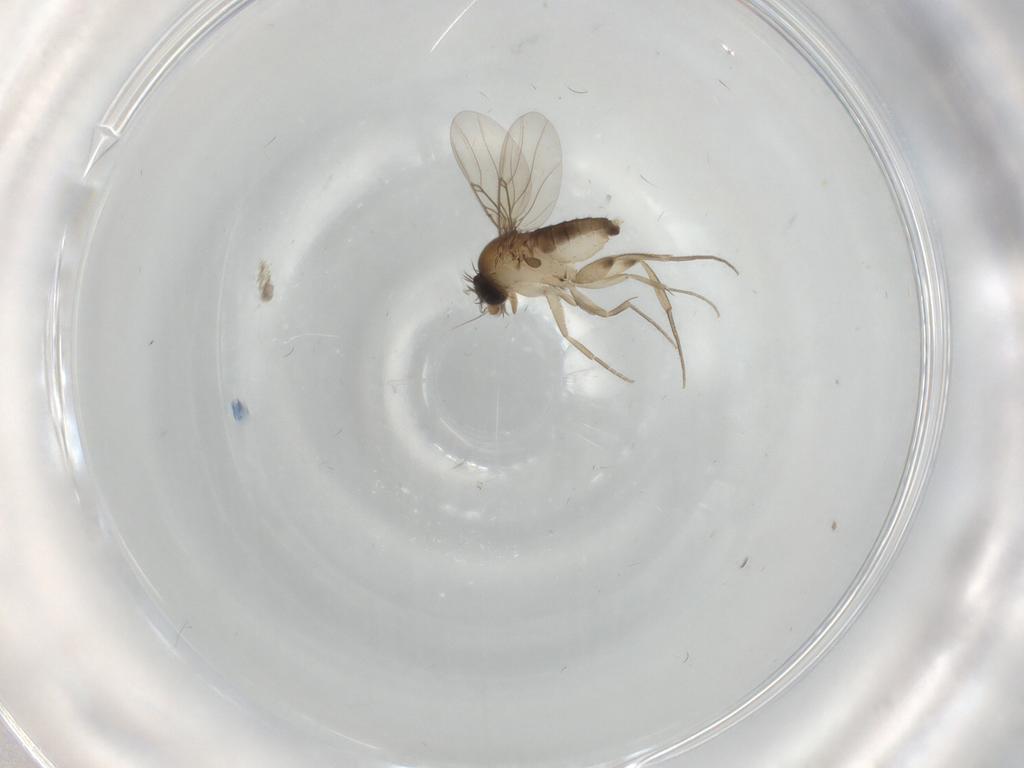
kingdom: Animalia
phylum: Arthropoda
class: Insecta
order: Diptera
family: Phoridae
